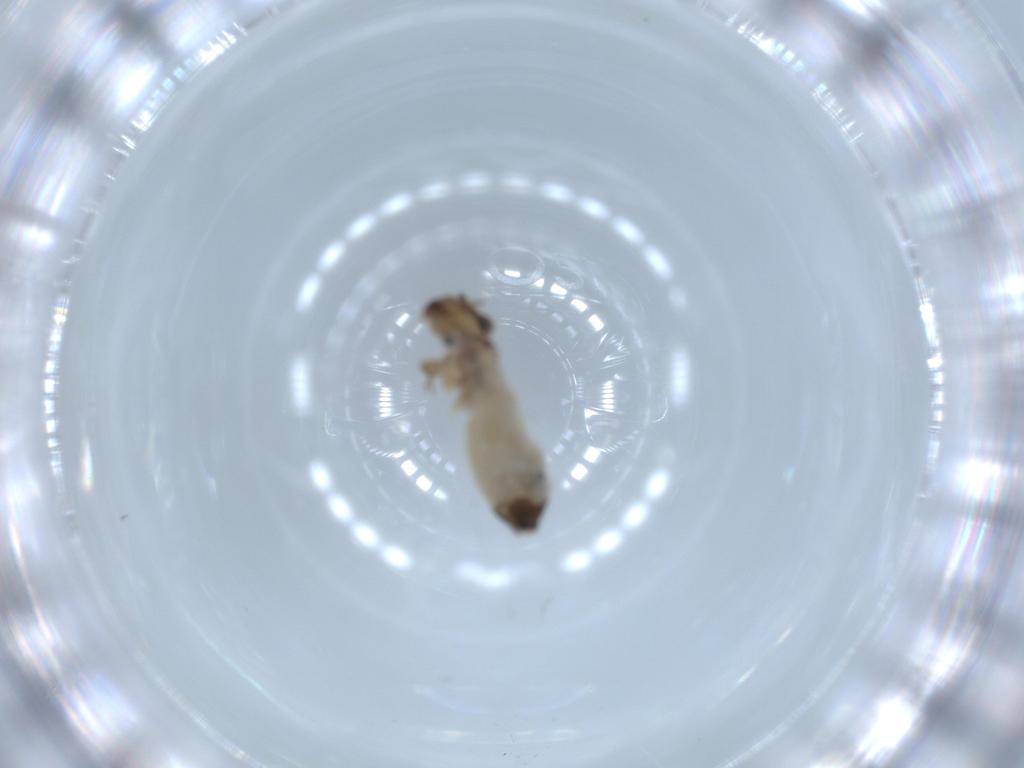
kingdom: Animalia
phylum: Arthropoda
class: Insecta
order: Psocodea
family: Lepidopsocidae
